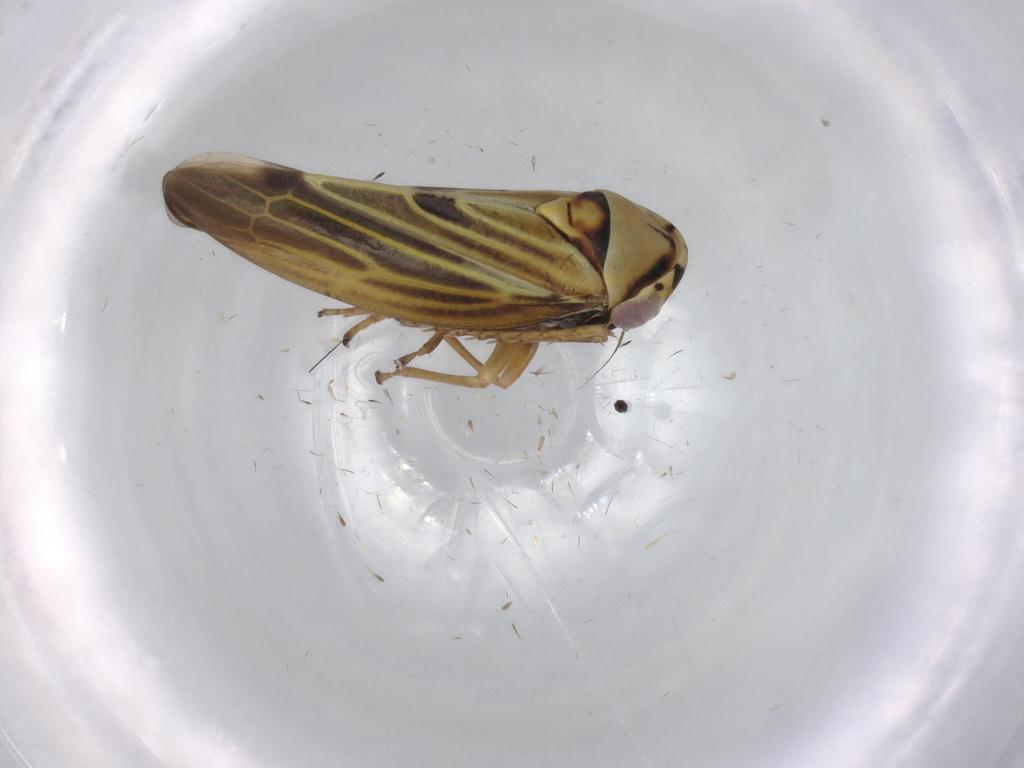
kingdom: Animalia
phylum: Arthropoda
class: Insecta
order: Hemiptera
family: Cicadellidae
